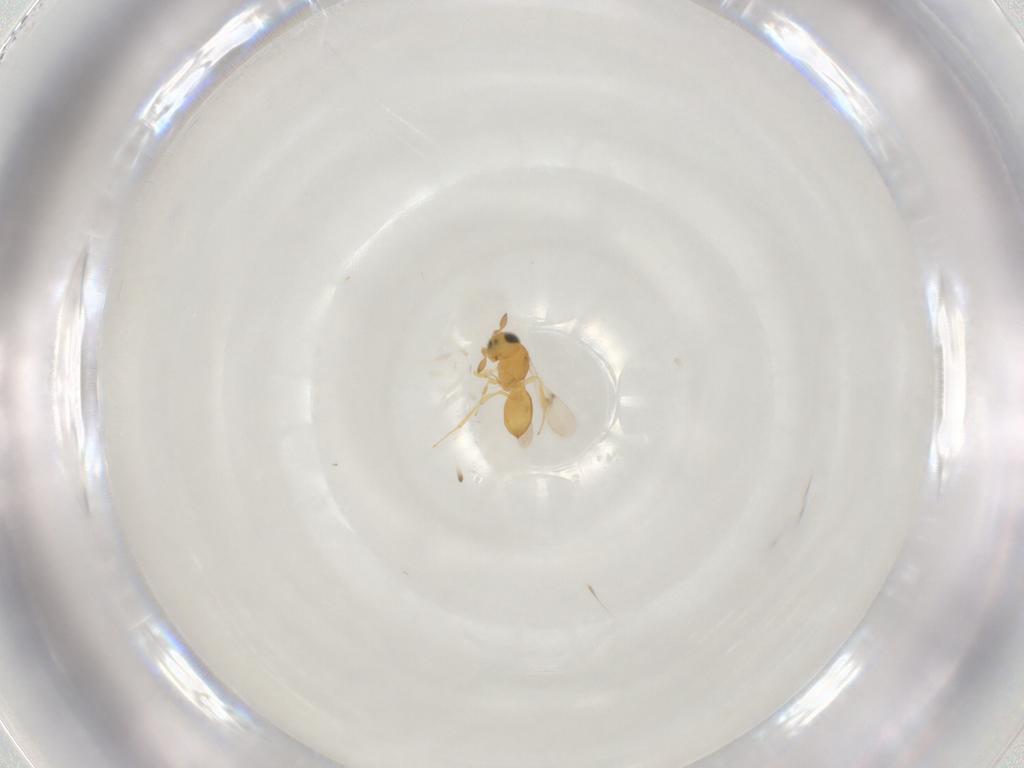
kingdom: Animalia
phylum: Arthropoda
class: Insecta
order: Hymenoptera
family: Scelionidae
